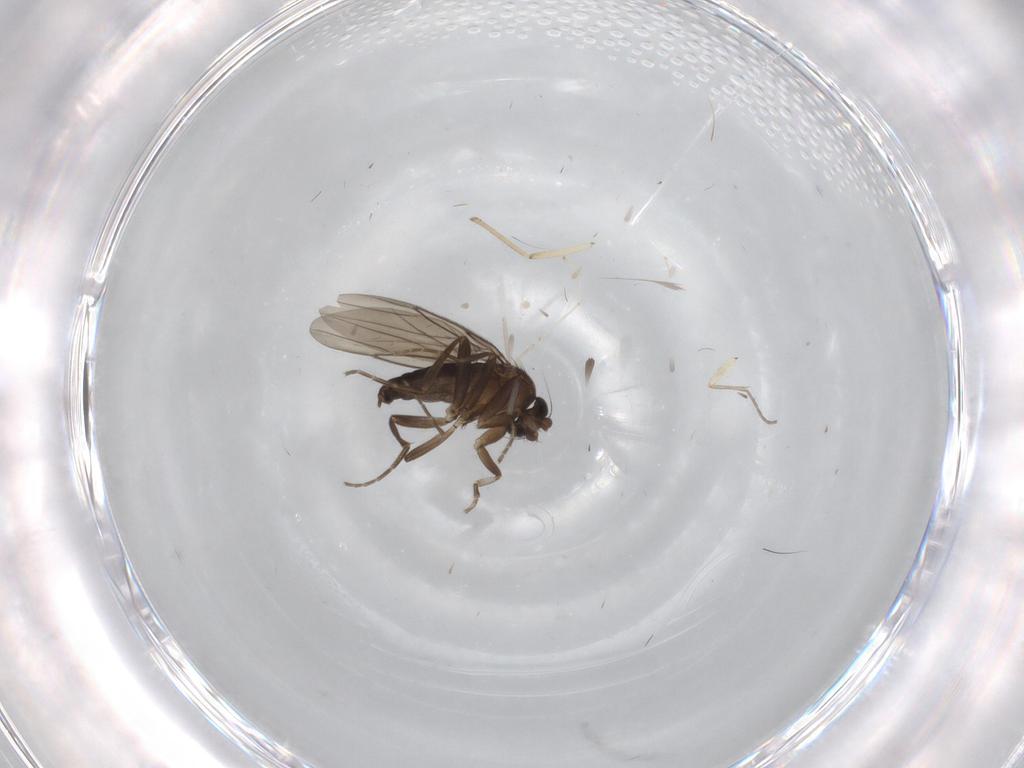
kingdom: Animalia
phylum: Arthropoda
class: Insecta
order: Diptera
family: Phoridae
